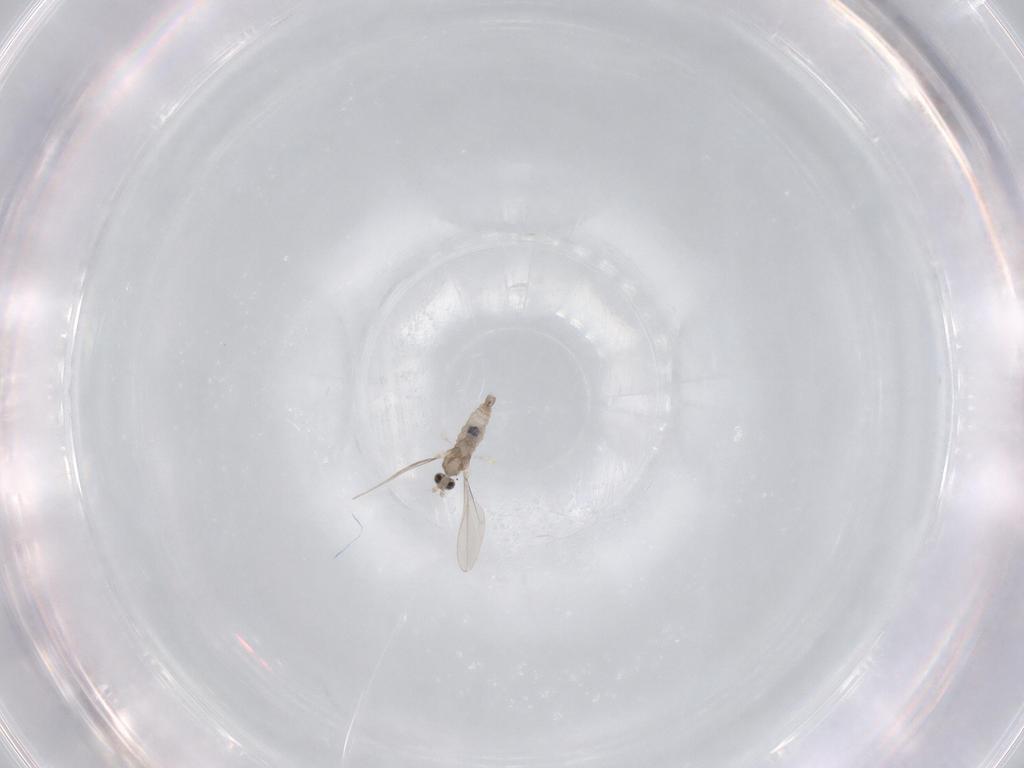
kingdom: Animalia
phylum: Arthropoda
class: Insecta
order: Diptera
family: Cecidomyiidae
